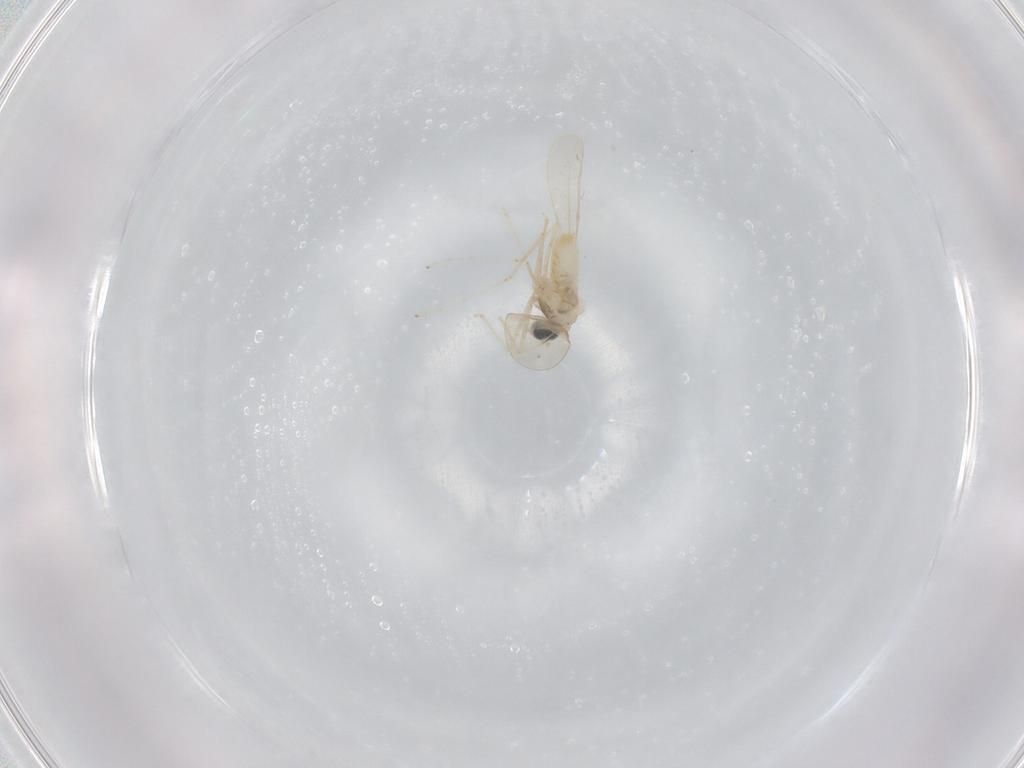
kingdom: Animalia
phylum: Arthropoda
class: Insecta
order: Diptera
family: Cecidomyiidae
